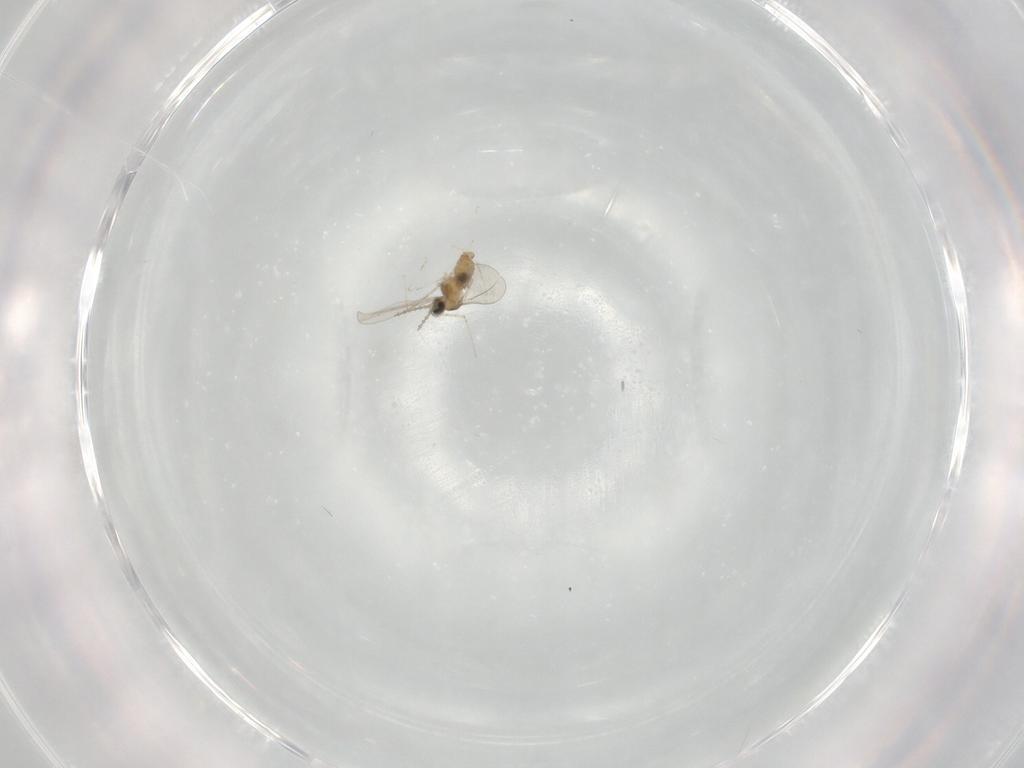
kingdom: Animalia
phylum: Arthropoda
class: Insecta
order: Diptera
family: Cecidomyiidae
